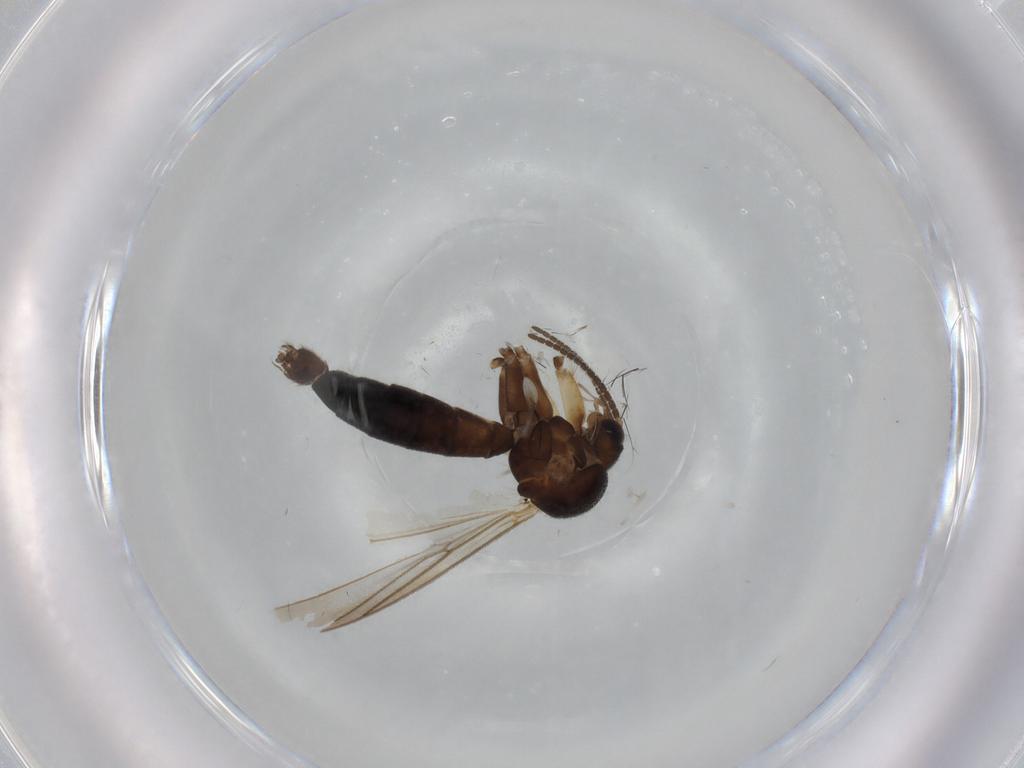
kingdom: Animalia
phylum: Arthropoda
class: Insecta
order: Diptera
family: Sciaridae
